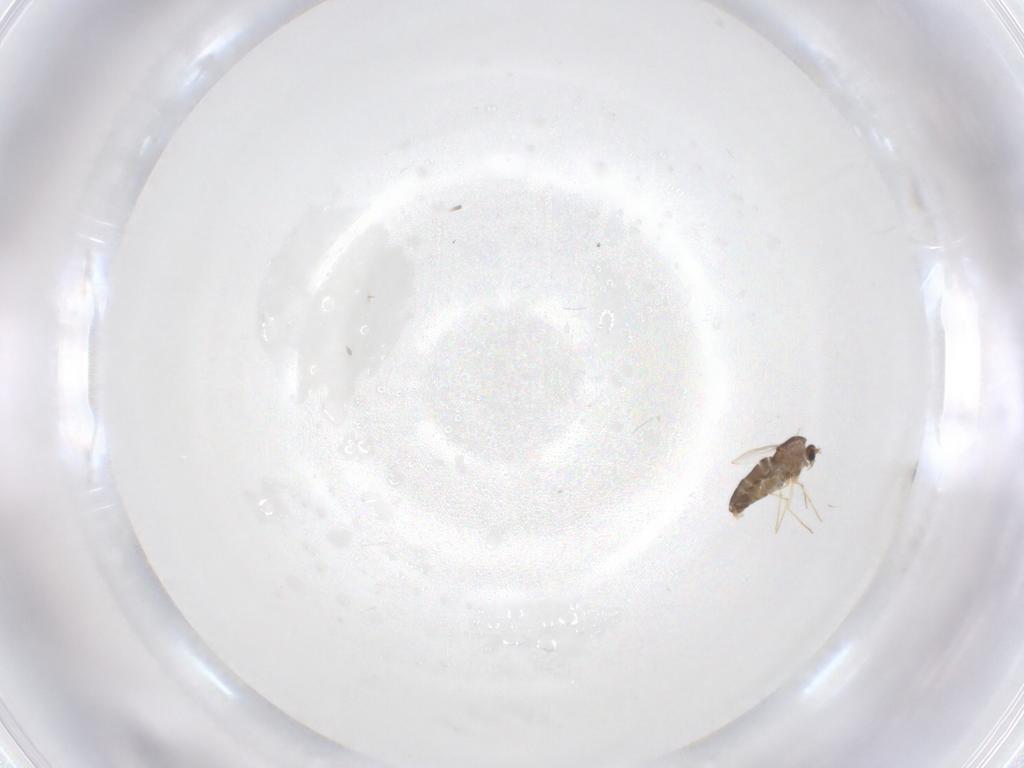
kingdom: Animalia
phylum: Arthropoda
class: Insecta
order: Diptera
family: Chironomidae
